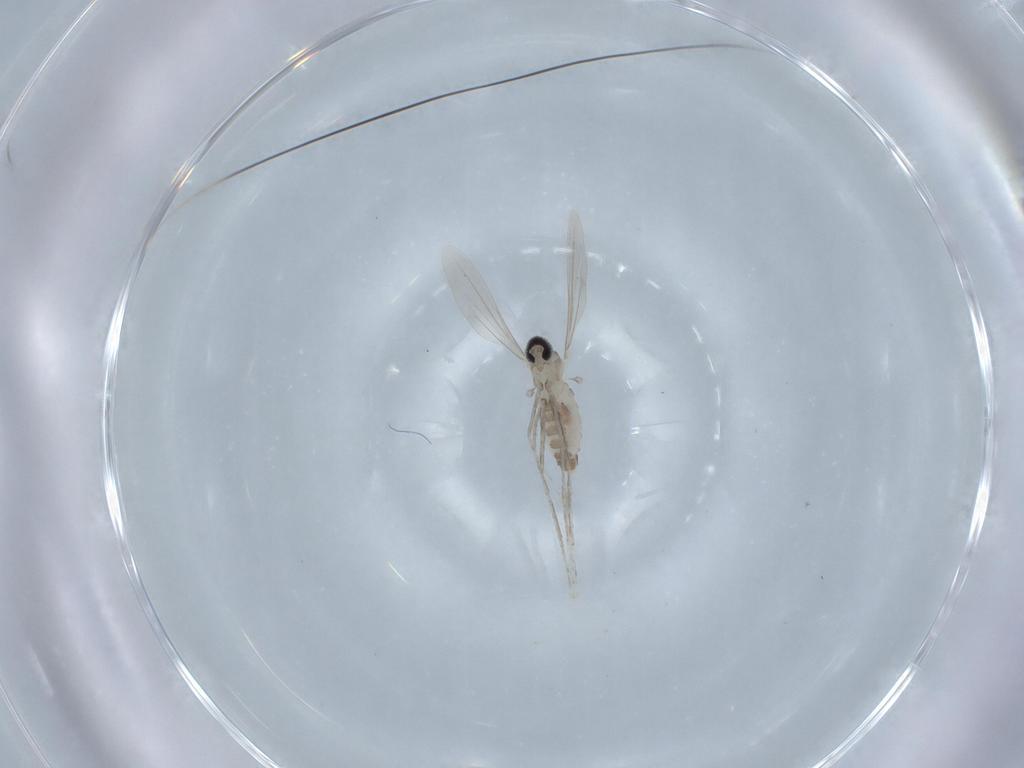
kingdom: Animalia
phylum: Arthropoda
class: Insecta
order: Diptera
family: Cecidomyiidae
